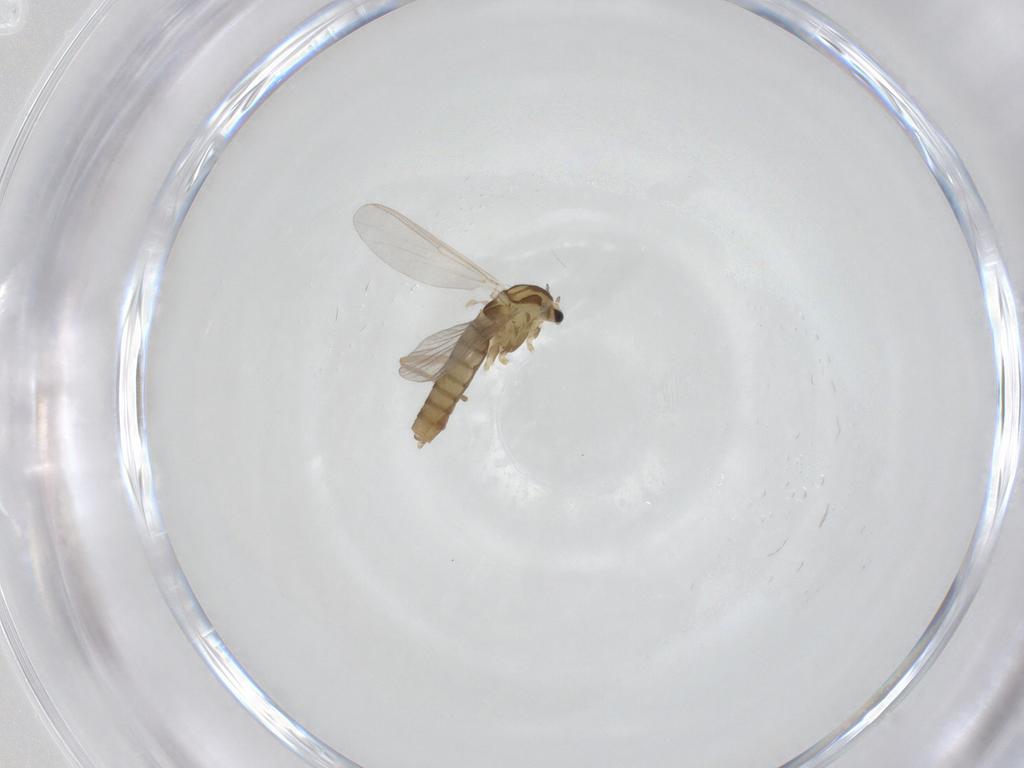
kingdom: Animalia
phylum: Arthropoda
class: Insecta
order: Diptera
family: Chironomidae
